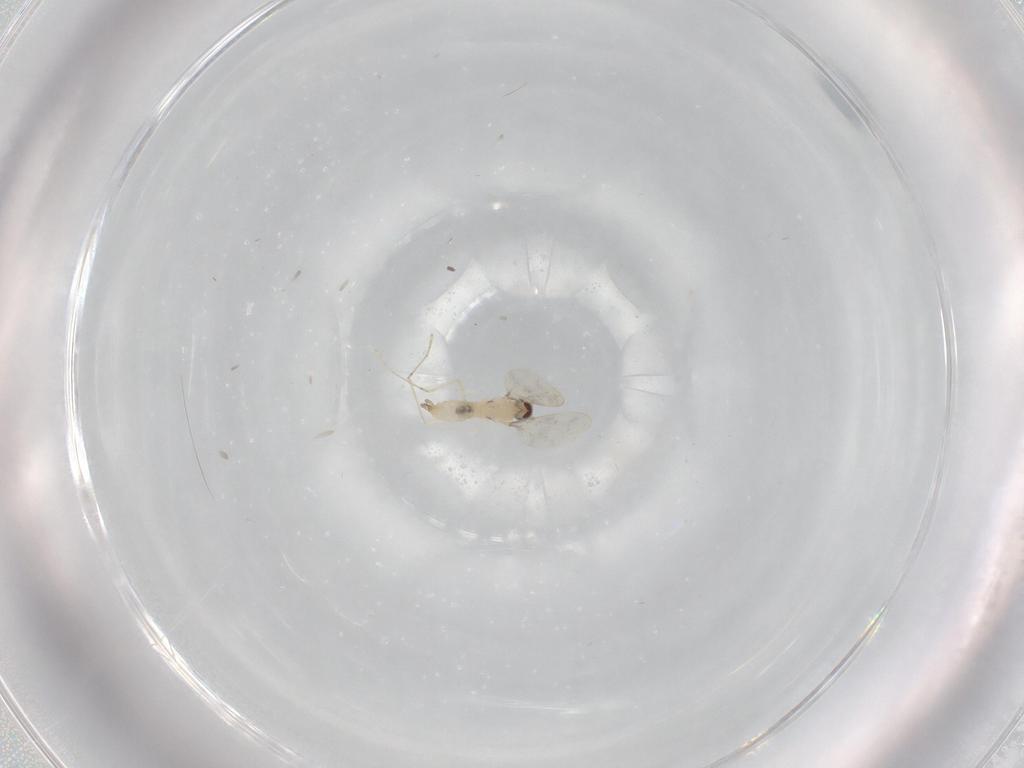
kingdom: Animalia
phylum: Arthropoda
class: Insecta
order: Diptera
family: Cecidomyiidae
